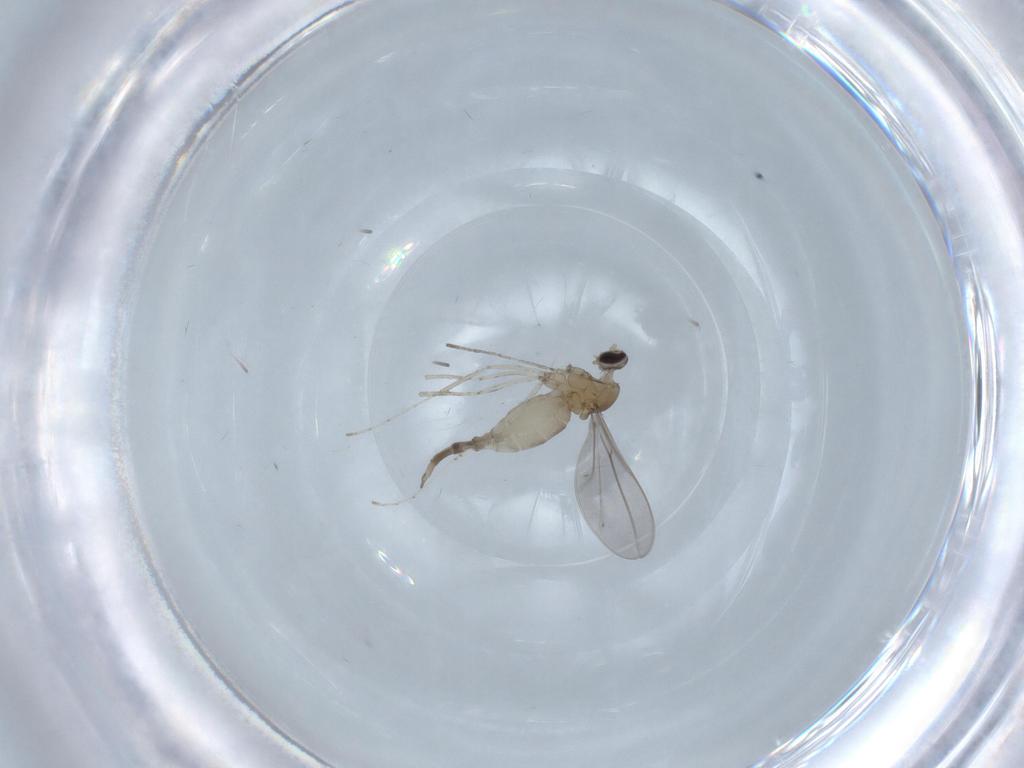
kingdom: Animalia
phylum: Arthropoda
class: Insecta
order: Diptera
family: Cecidomyiidae
